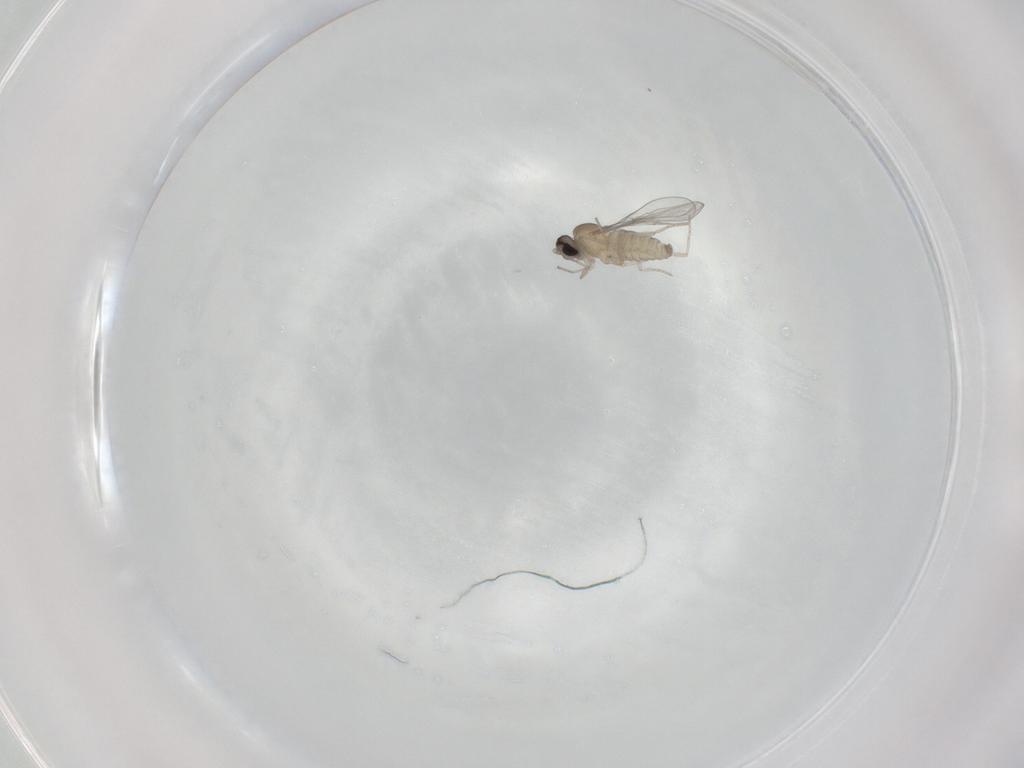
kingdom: Animalia
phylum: Arthropoda
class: Insecta
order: Diptera
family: Cecidomyiidae
